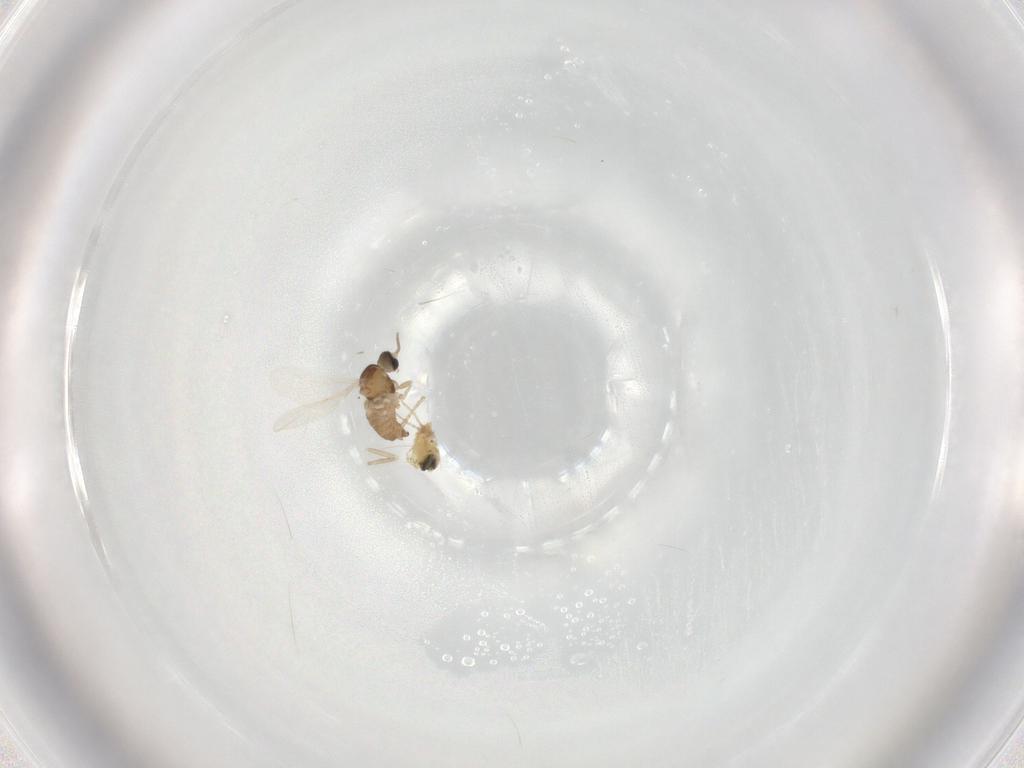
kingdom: Animalia
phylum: Arthropoda
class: Insecta
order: Diptera
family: Cecidomyiidae
